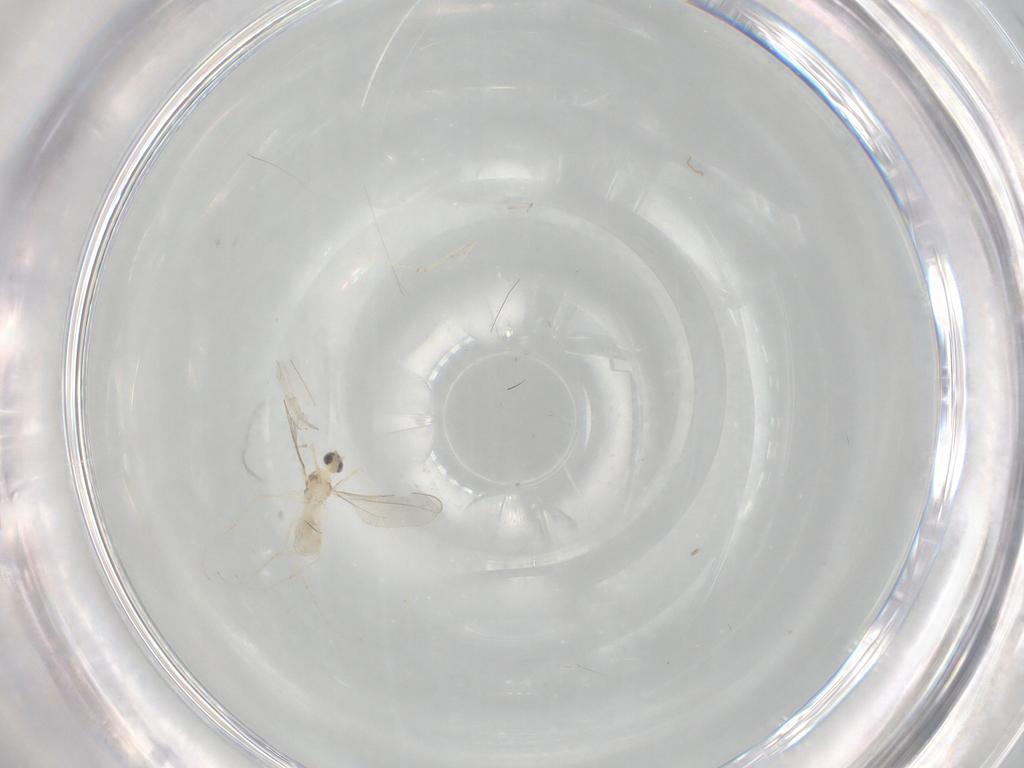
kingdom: Animalia
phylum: Arthropoda
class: Insecta
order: Diptera
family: Cecidomyiidae
